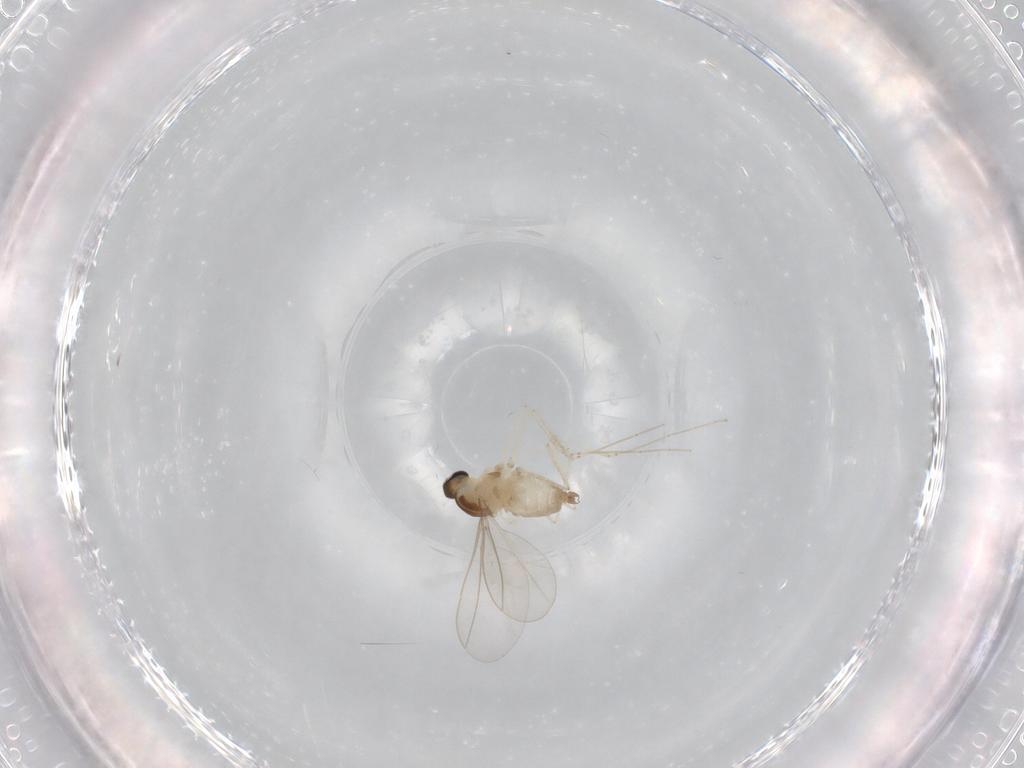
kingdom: Animalia
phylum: Arthropoda
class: Insecta
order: Diptera
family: Cecidomyiidae
